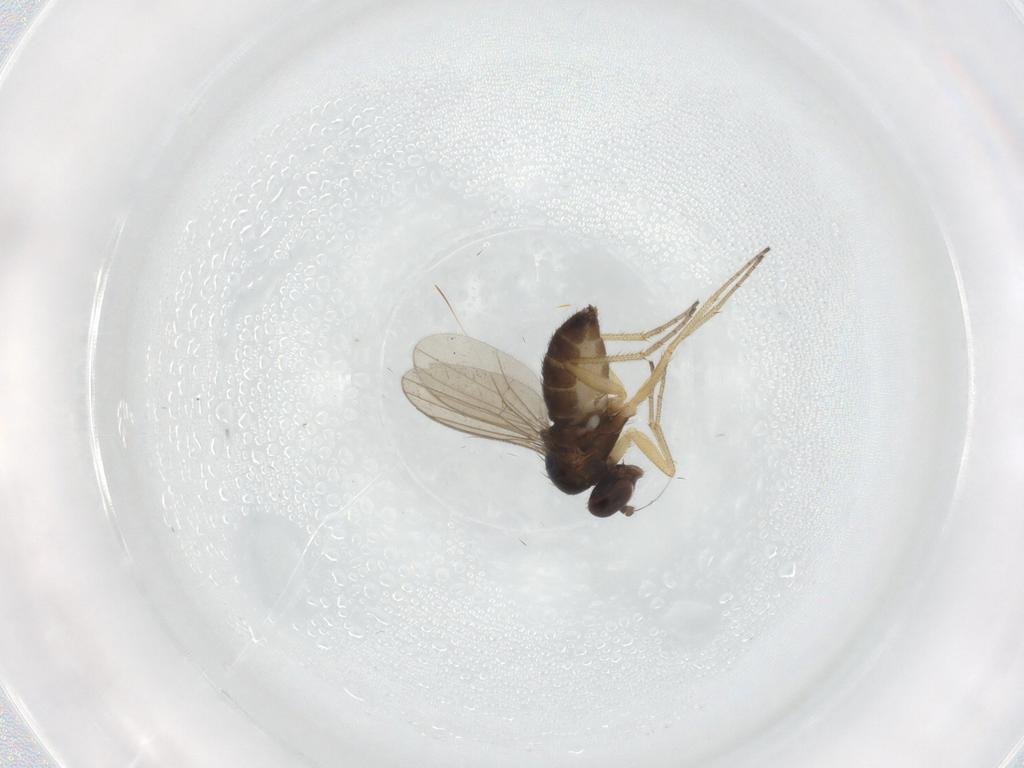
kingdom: Animalia
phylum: Arthropoda
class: Insecta
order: Diptera
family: Dolichopodidae
